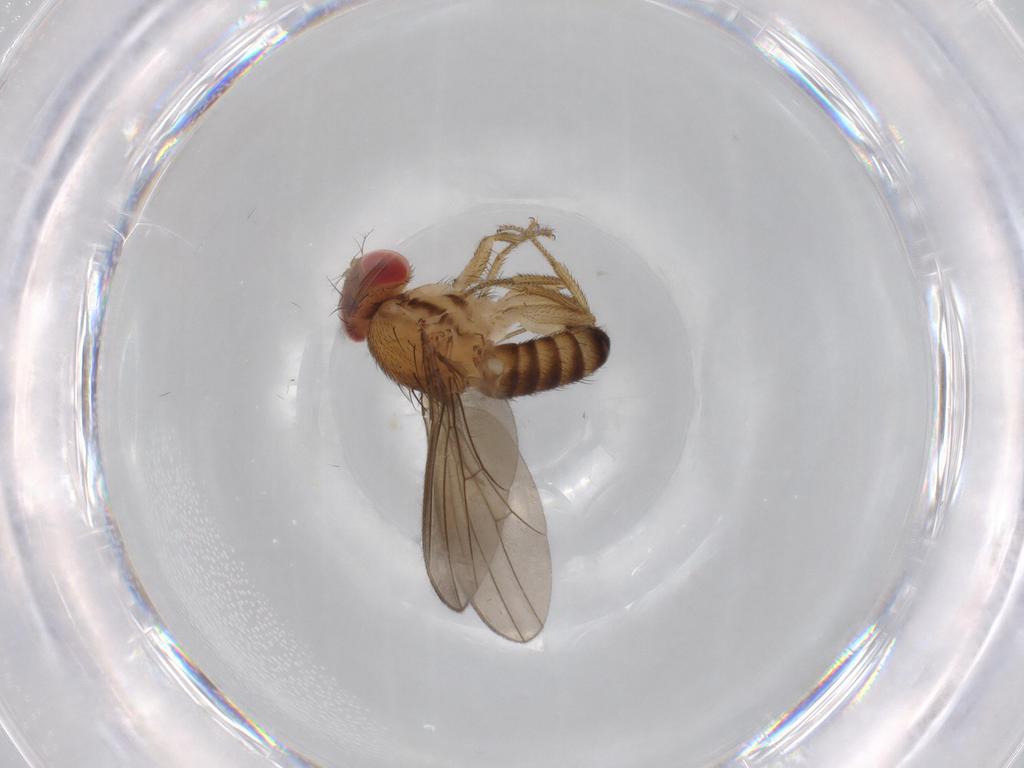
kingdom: Animalia
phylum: Arthropoda
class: Insecta
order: Diptera
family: Drosophilidae
